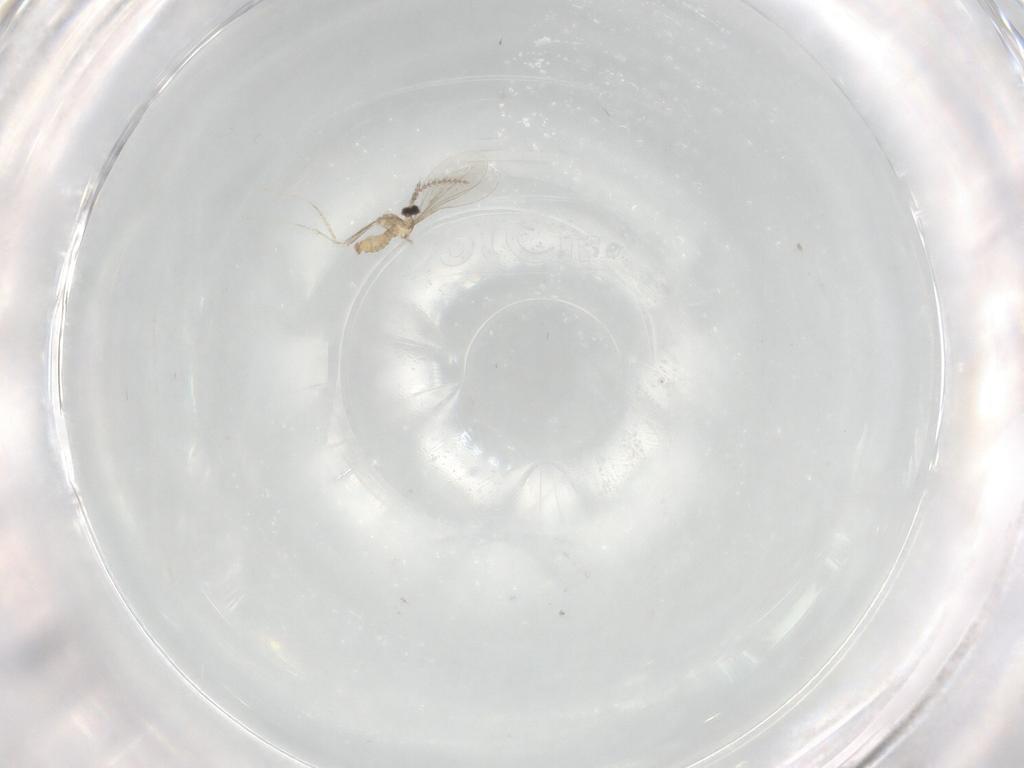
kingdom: Animalia
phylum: Arthropoda
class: Insecta
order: Diptera
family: Cecidomyiidae
